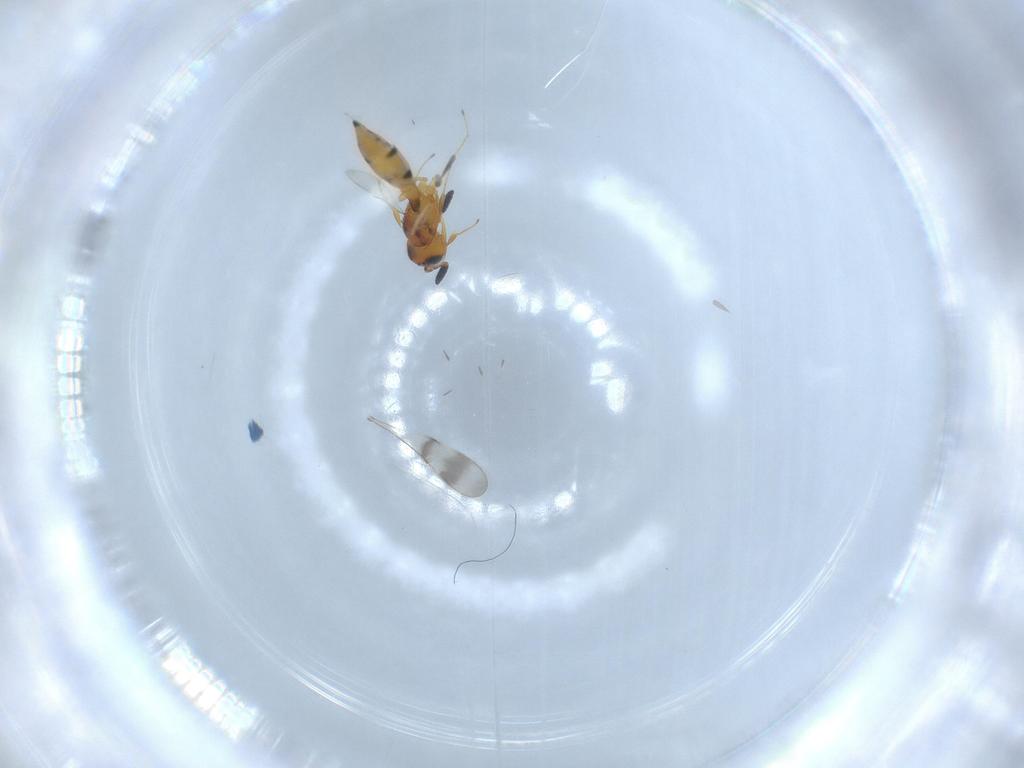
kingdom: Animalia
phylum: Arthropoda
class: Insecta
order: Hymenoptera
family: Scelionidae
